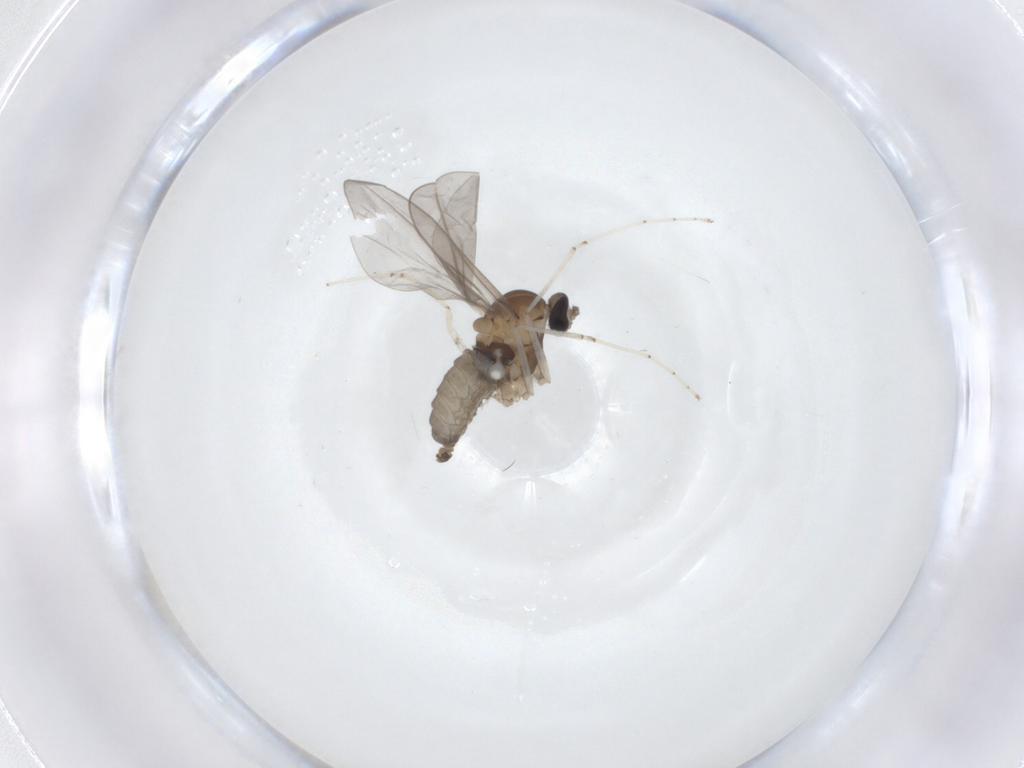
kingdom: Animalia
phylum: Arthropoda
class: Insecta
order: Diptera
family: Cecidomyiidae
